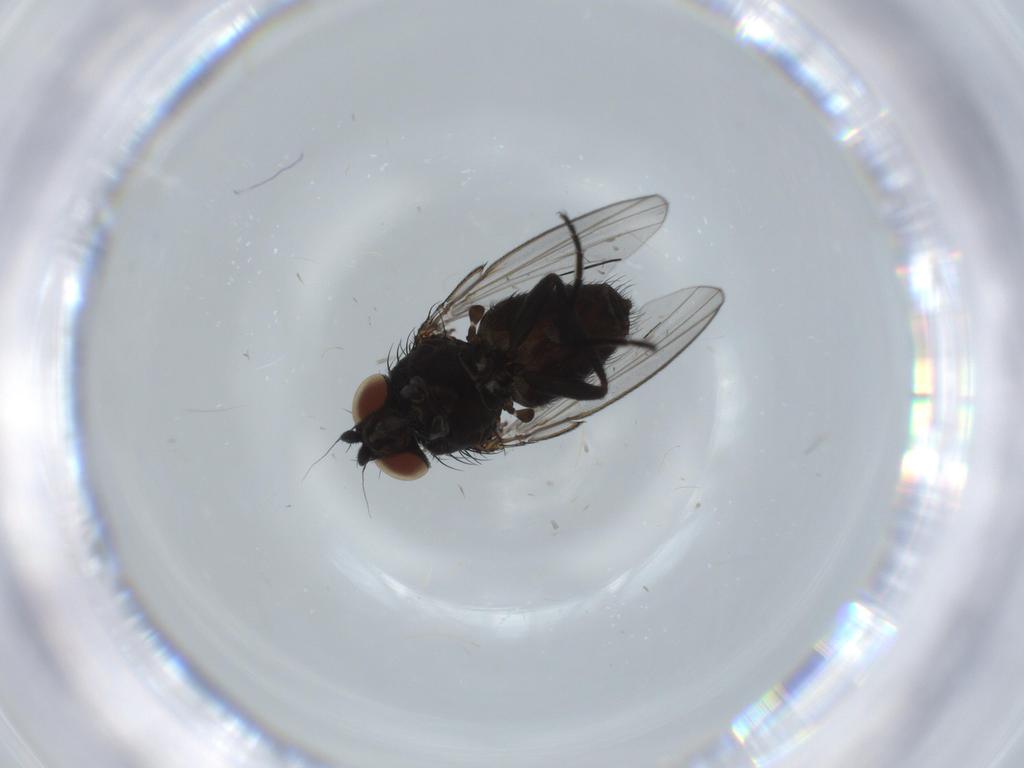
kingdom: Animalia
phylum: Arthropoda
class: Insecta
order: Diptera
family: Milichiidae
